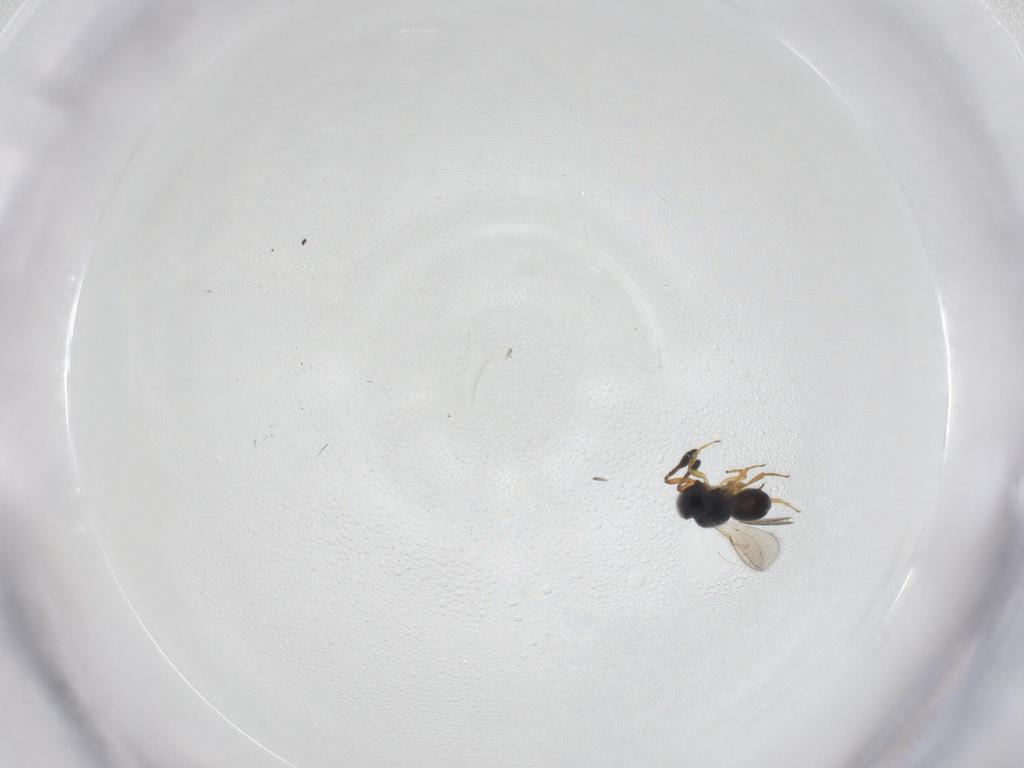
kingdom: Animalia
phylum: Arthropoda
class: Insecta
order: Hymenoptera
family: Scelionidae
